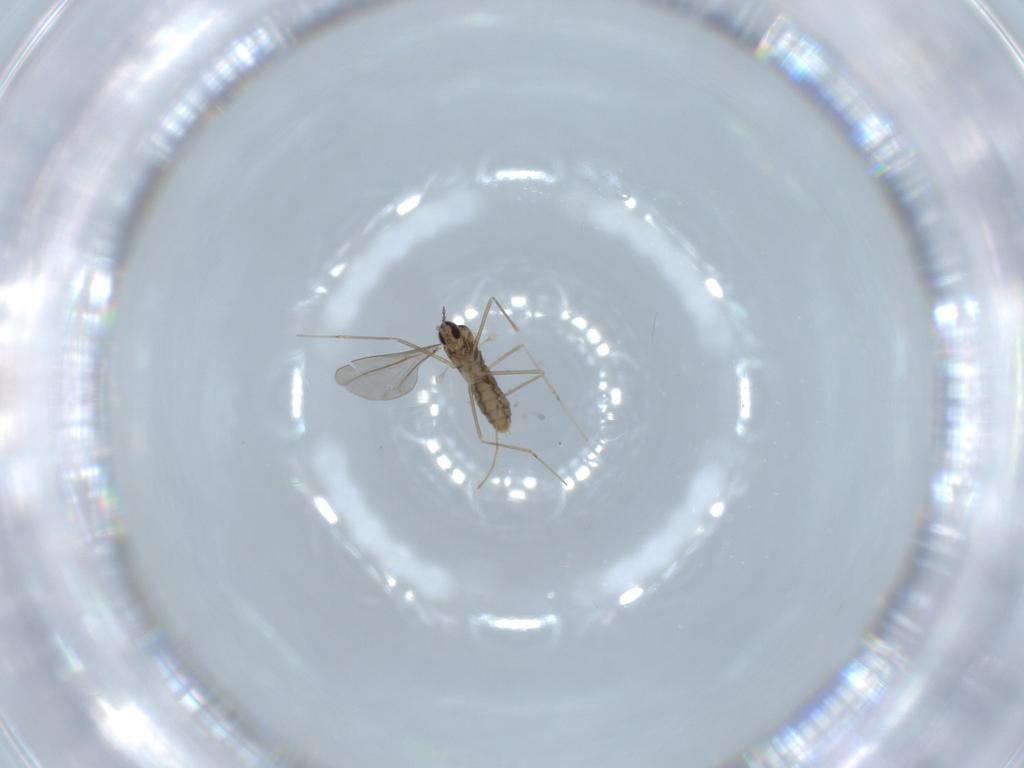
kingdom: Animalia
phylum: Arthropoda
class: Insecta
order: Diptera
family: Cecidomyiidae
